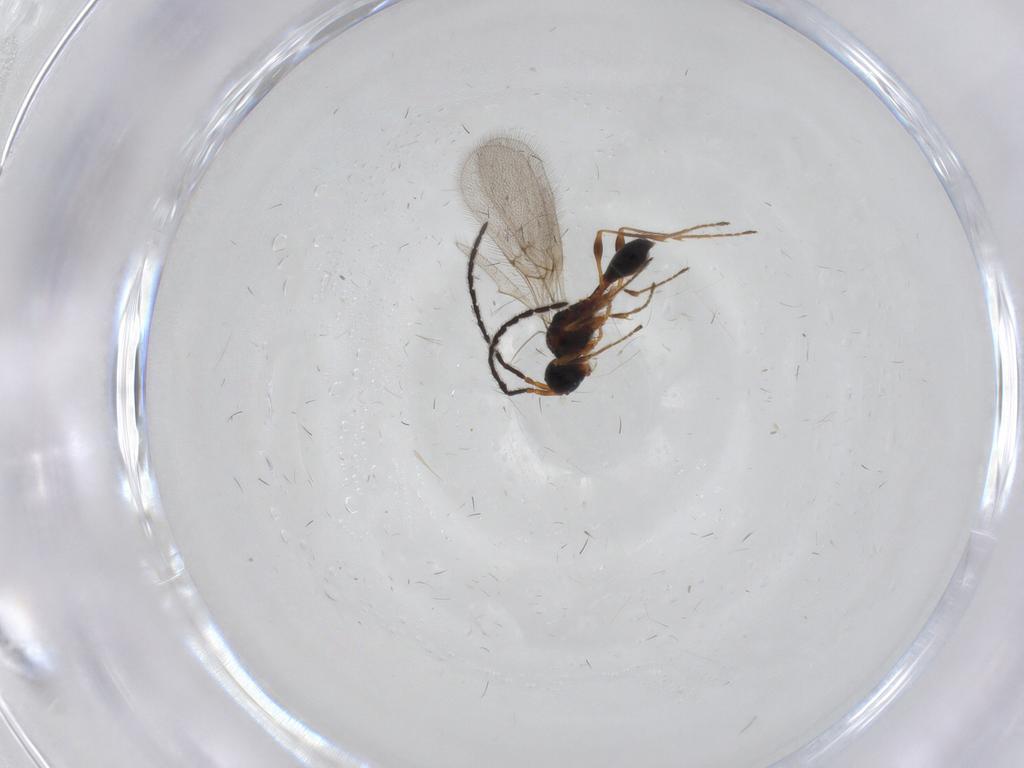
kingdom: Animalia
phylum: Arthropoda
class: Insecta
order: Hymenoptera
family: Diapriidae
